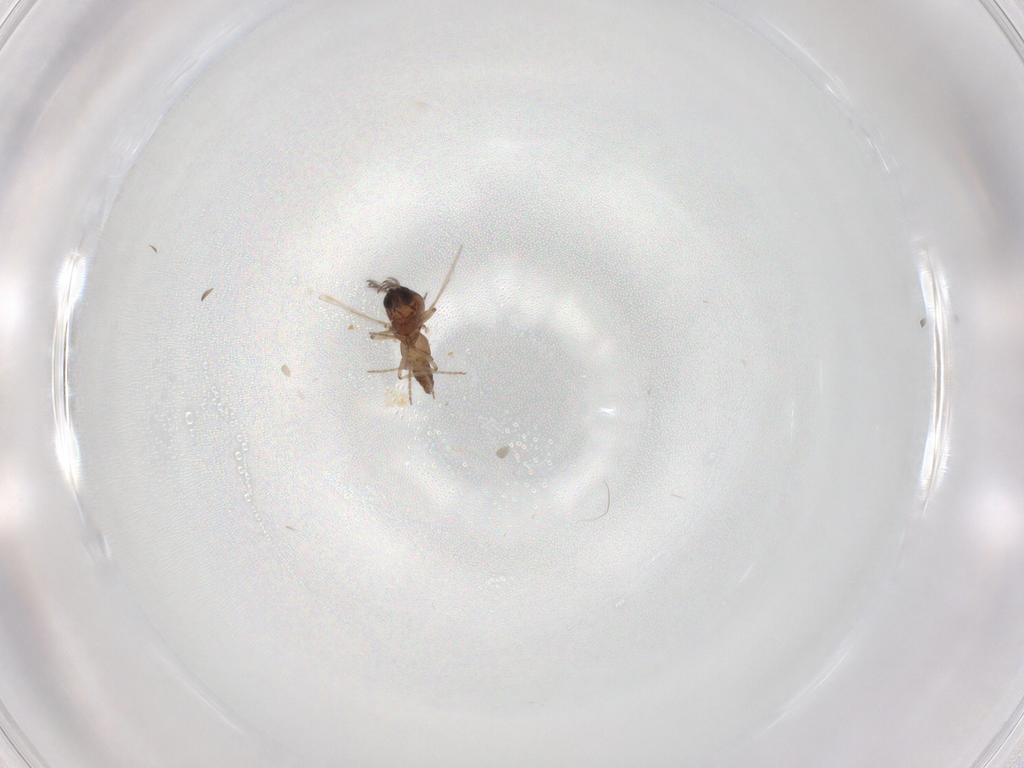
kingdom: Animalia
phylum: Arthropoda
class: Insecta
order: Diptera
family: Ceratopogonidae
